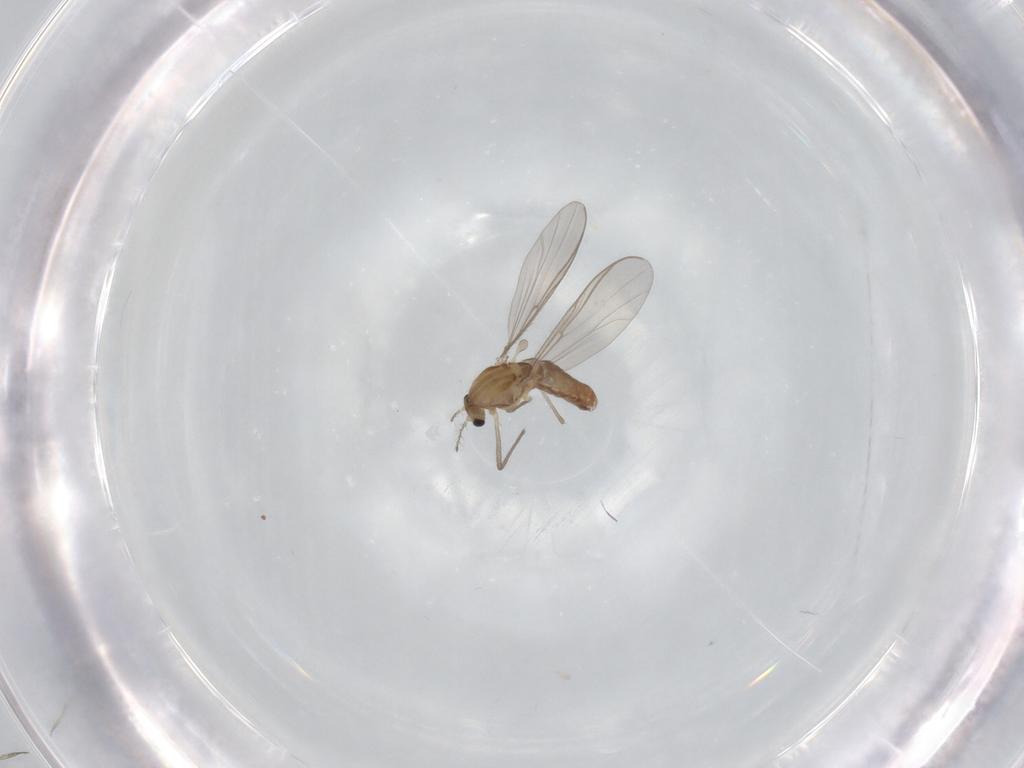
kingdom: Animalia
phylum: Arthropoda
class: Insecta
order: Diptera
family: Chironomidae
